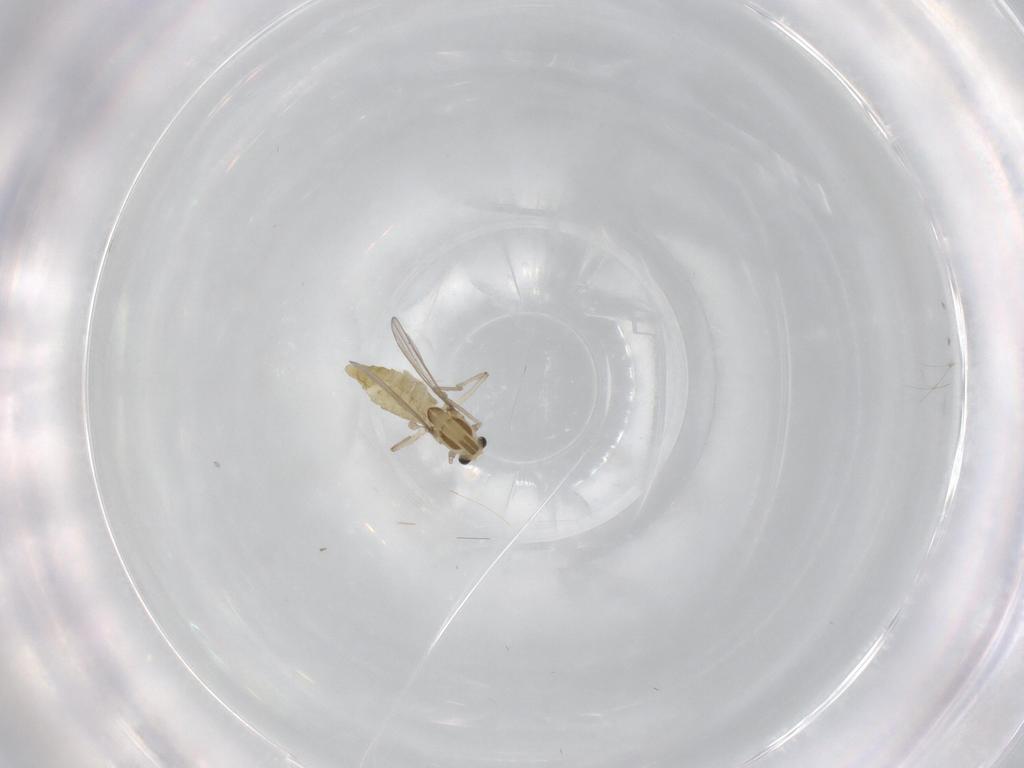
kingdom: Animalia
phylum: Arthropoda
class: Insecta
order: Diptera
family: Chironomidae
